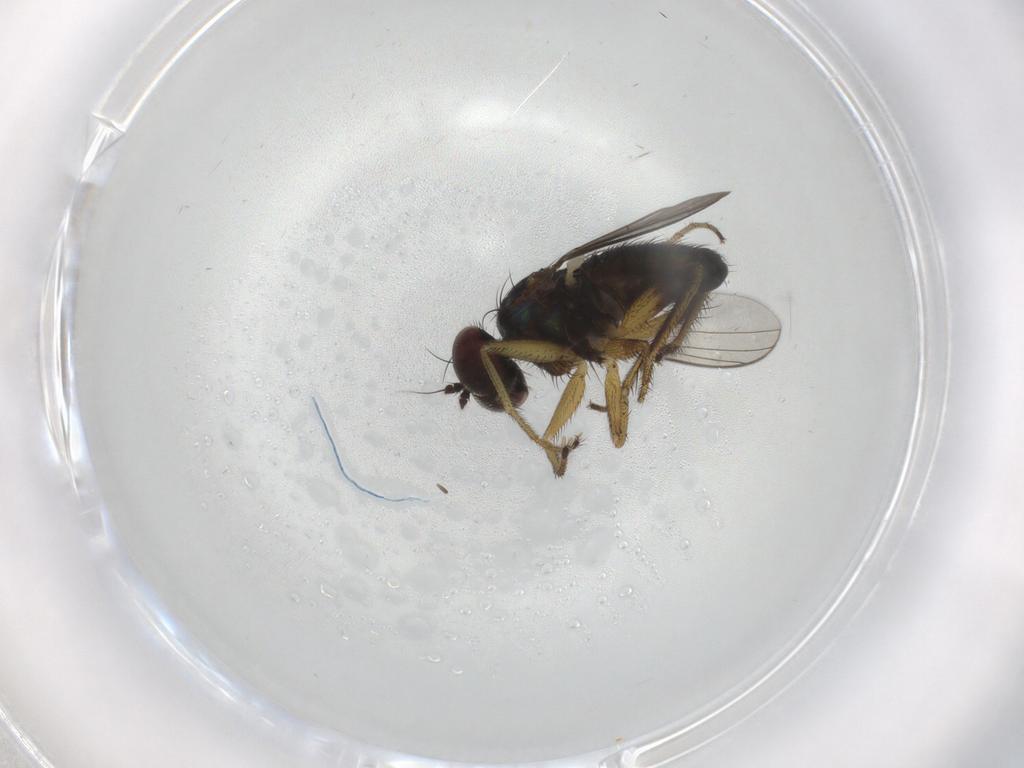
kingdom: Animalia
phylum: Arthropoda
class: Insecta
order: Diptera
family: Dolichopodidae
